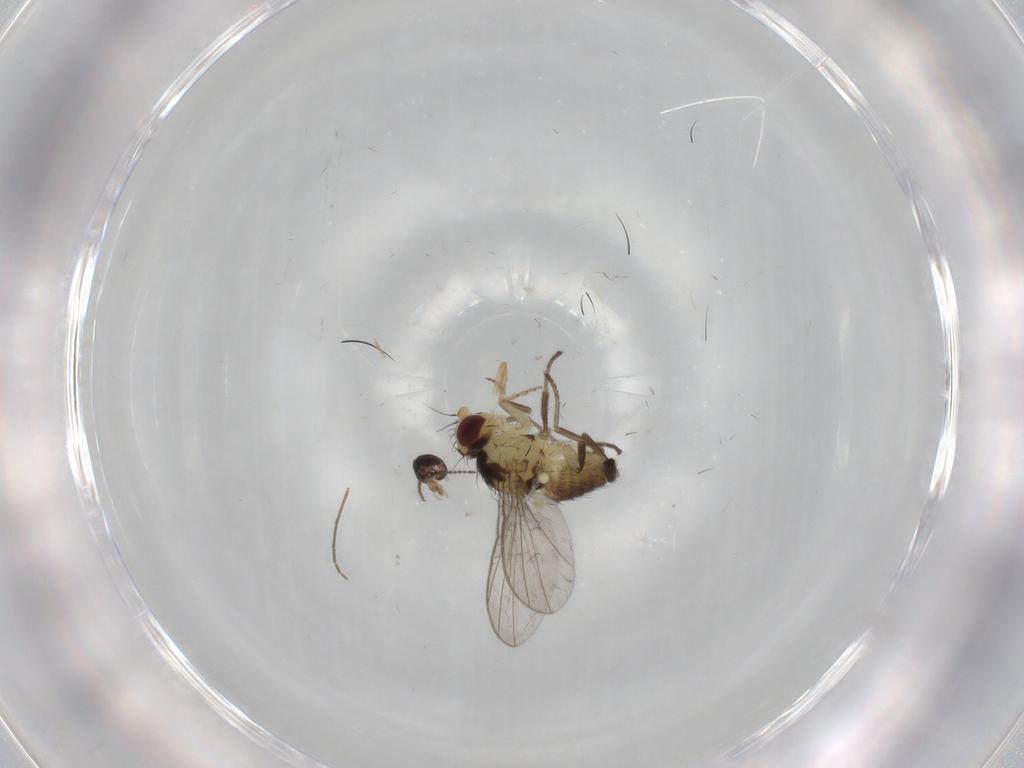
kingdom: Animalia
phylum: Arthropoda
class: Insecta
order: Diptera
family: Agromyzidae
